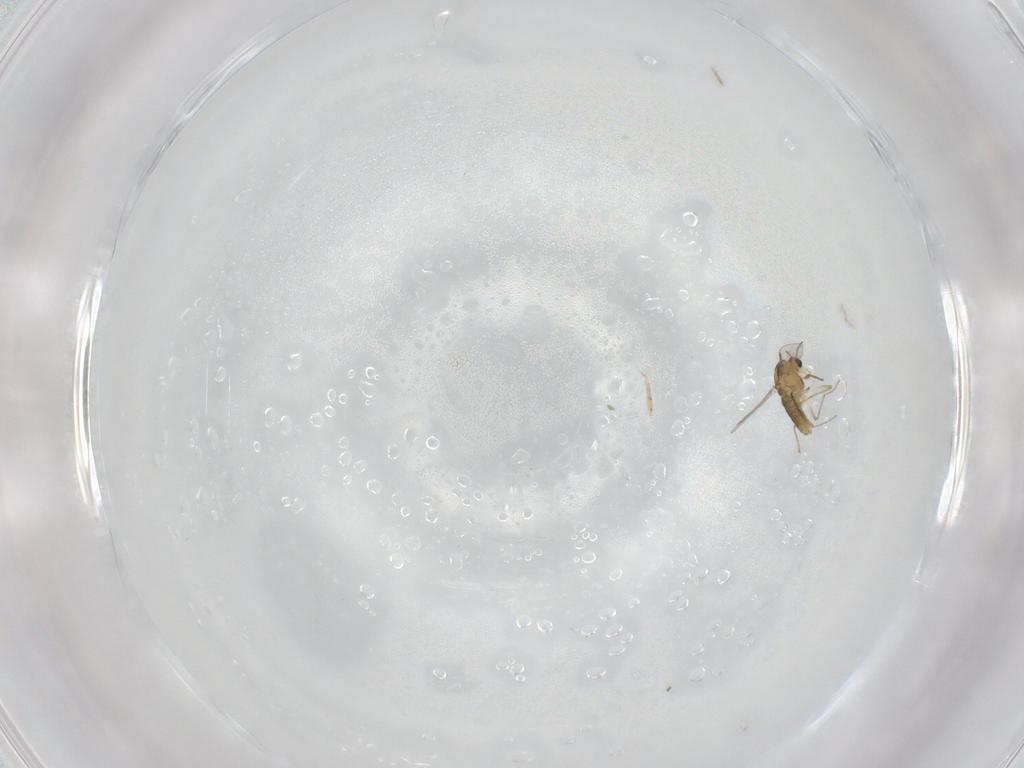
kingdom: Animalia
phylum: Arthropoda
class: Insecta
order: Diptera
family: Chironomidae
